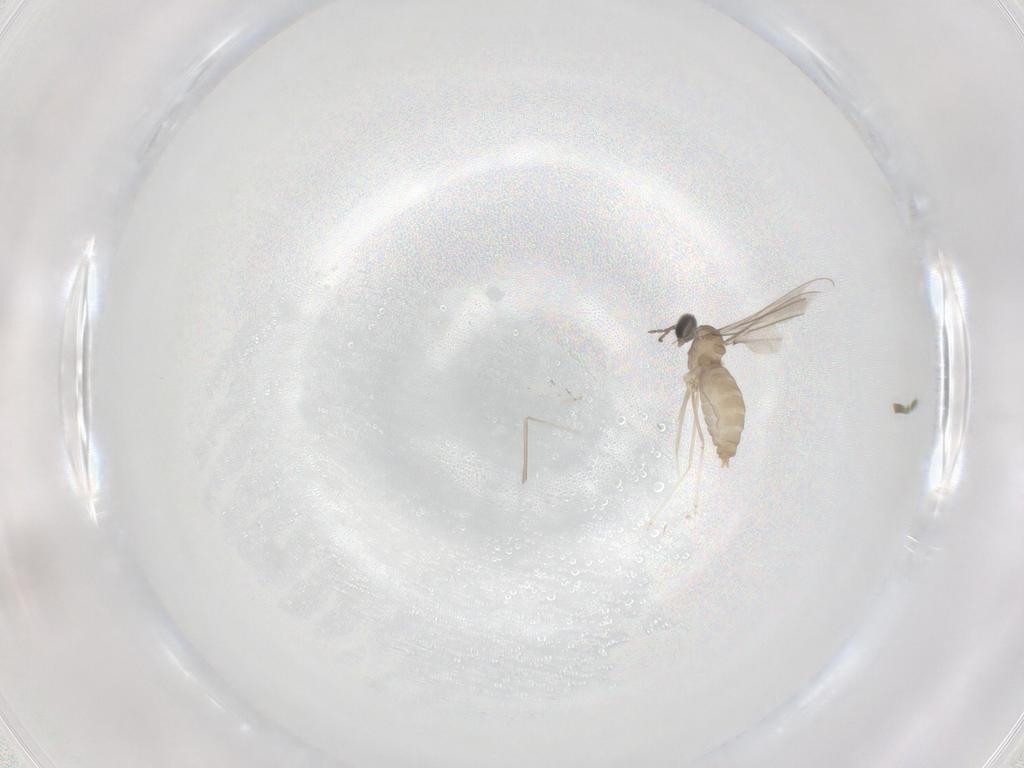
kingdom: Animalia
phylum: Arthropoda
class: Insecta
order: Diptera
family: Cecidomyiidae
